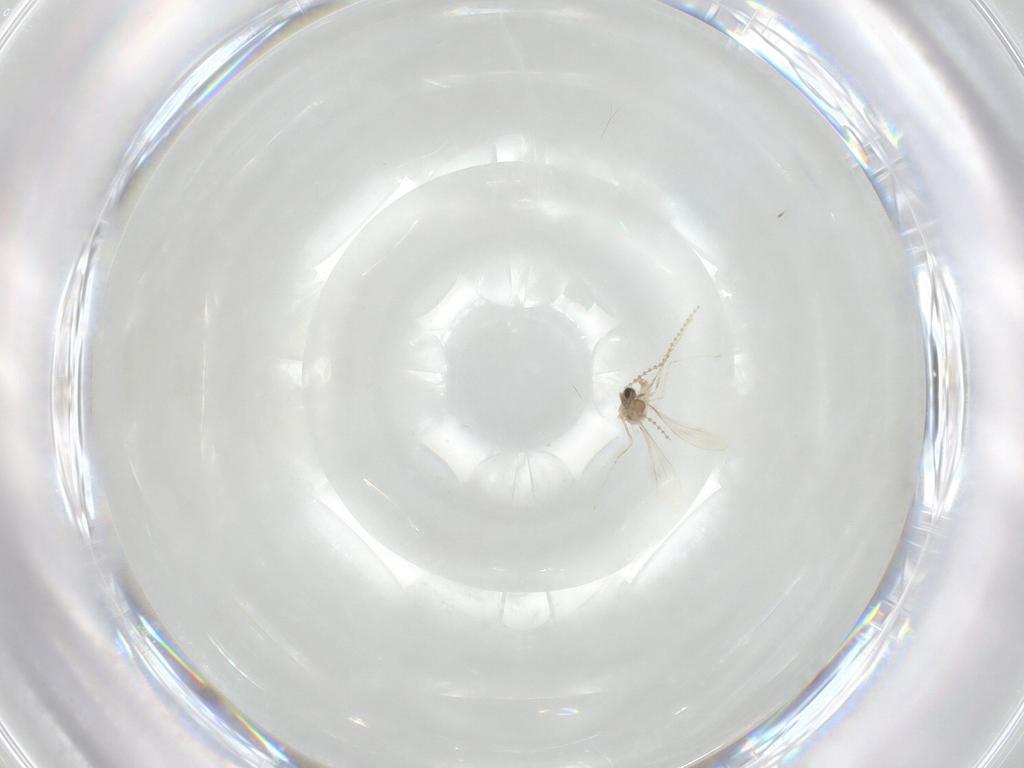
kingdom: Animalia
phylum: Arthropoda
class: Insecta
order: Diptera
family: Cecidomyiidae
